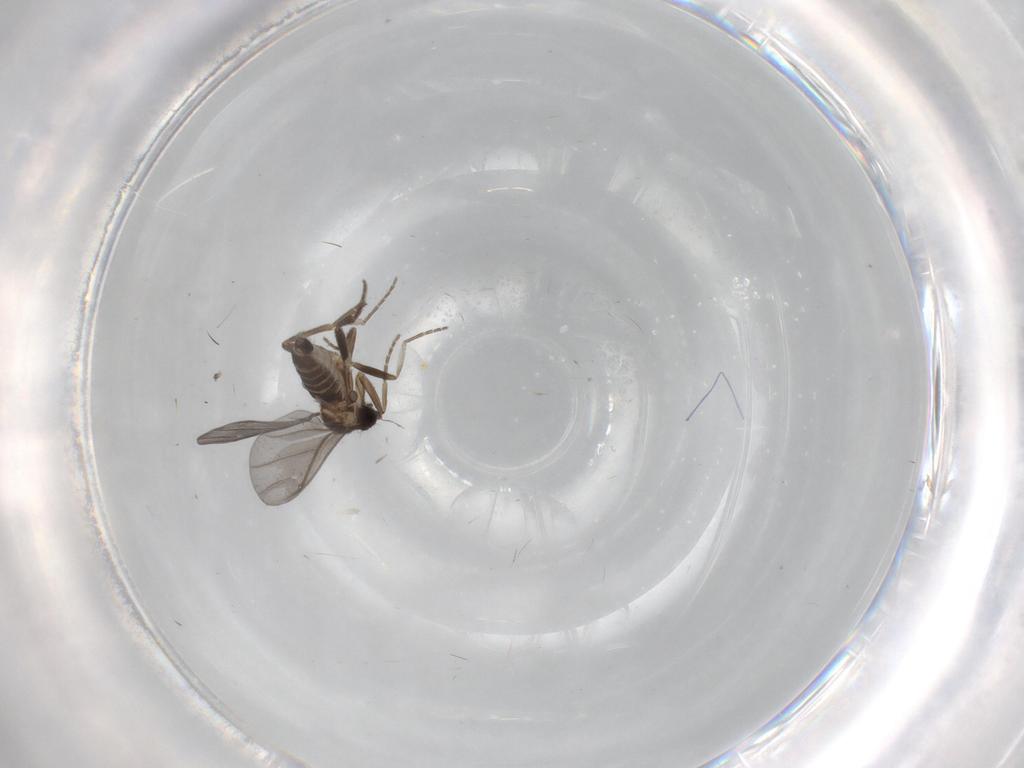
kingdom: Animalia
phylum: Arthropoda
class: Insecta
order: Diptera
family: Phoridae
